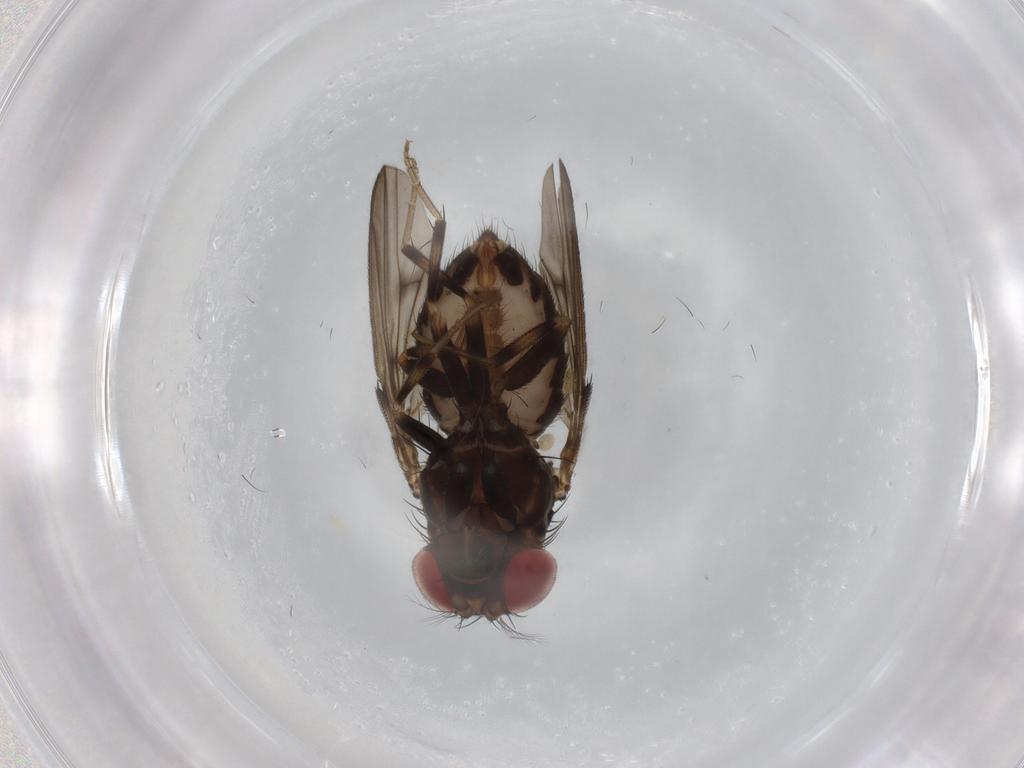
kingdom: Animalia
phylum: Arthropoda
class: Insecta
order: Diptera
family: Drosophilidae
